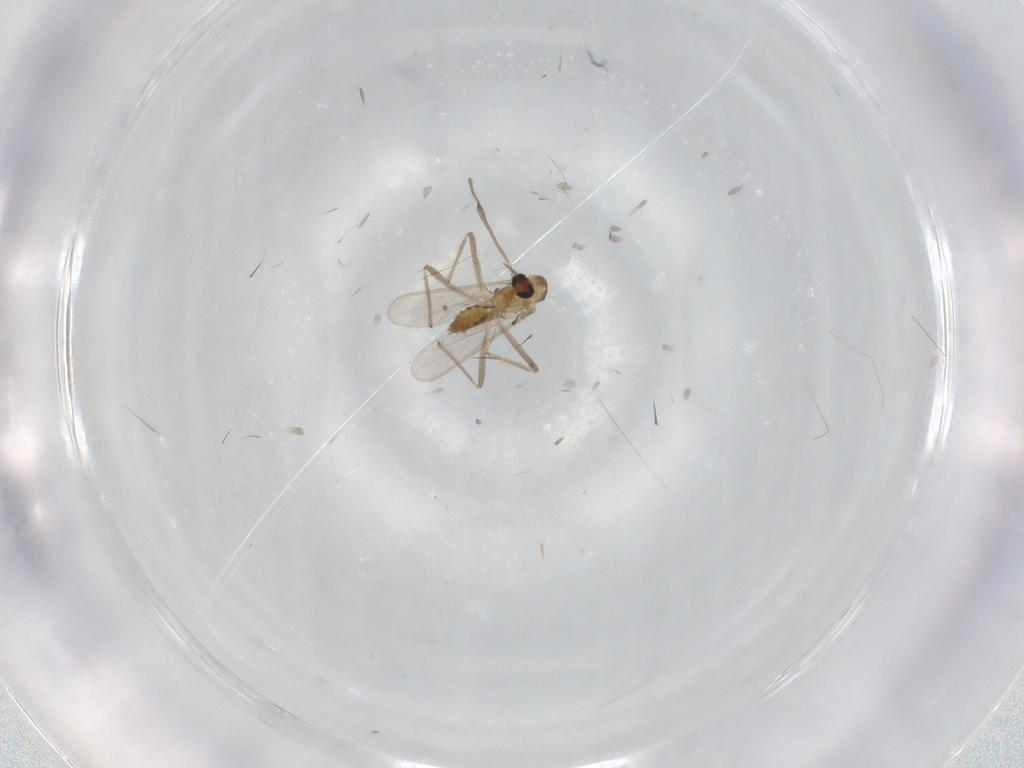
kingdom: Animalia
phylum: Arthropoda
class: Insecta
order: Diptera
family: Chironomidae
